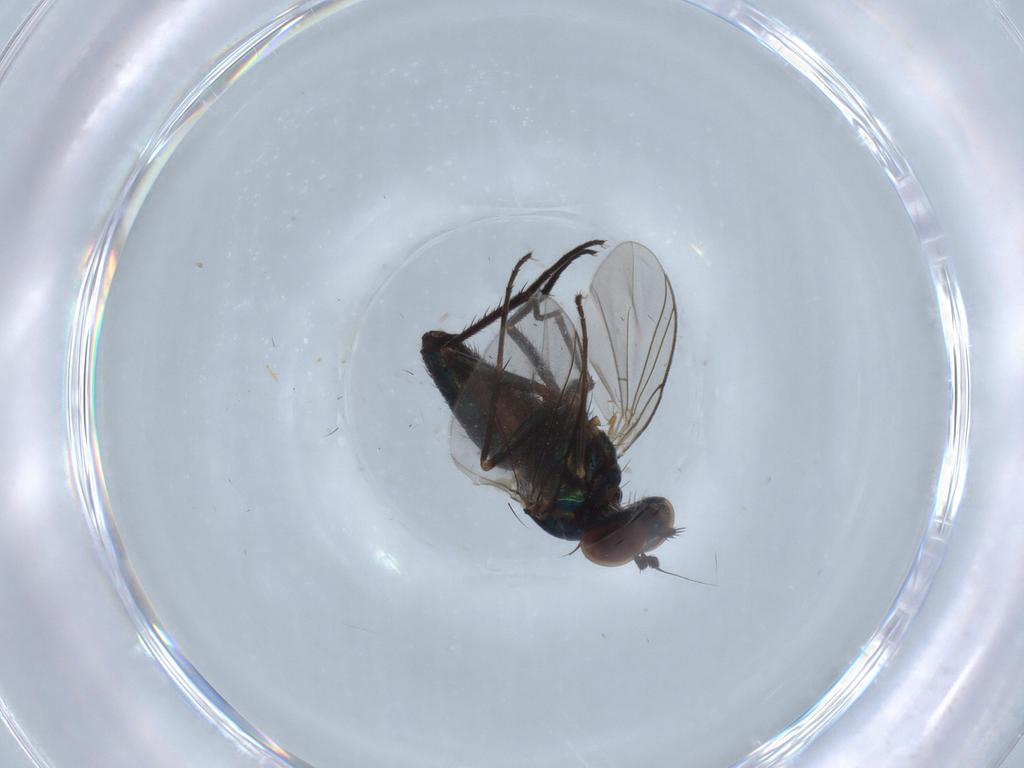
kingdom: Animalia
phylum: Arthropoda
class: Insecta
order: Diptera
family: Dolichopodidae
